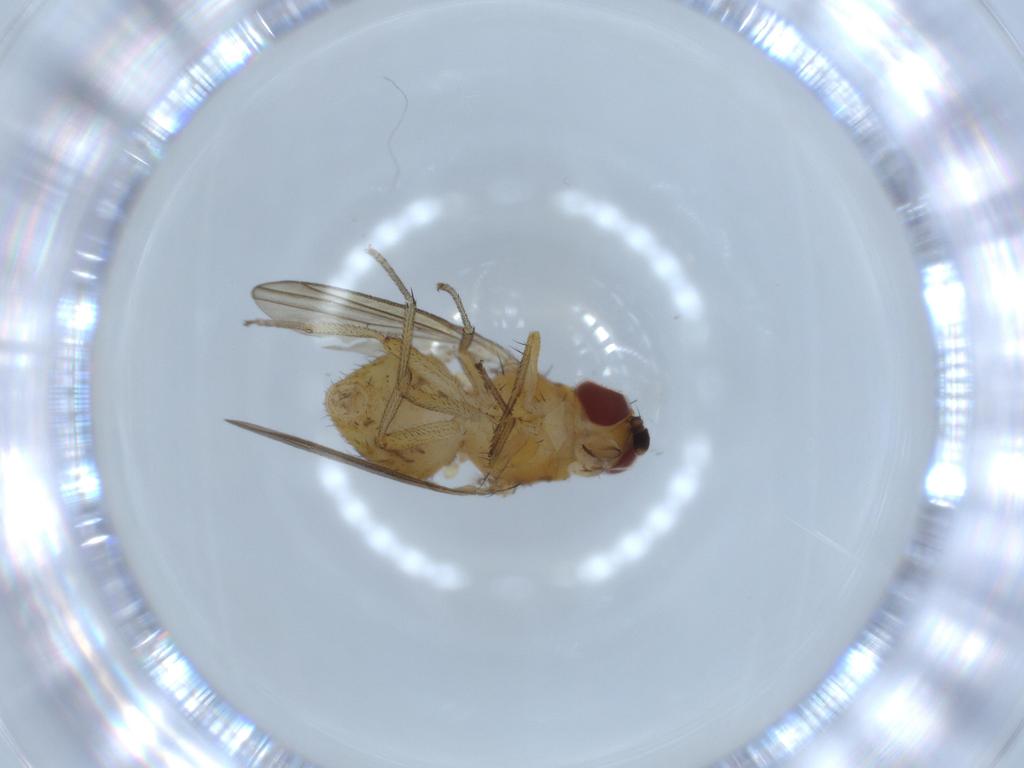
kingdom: Animalia
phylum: Arthropoda
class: Insecta
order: Diptera
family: Lauxaniidae
